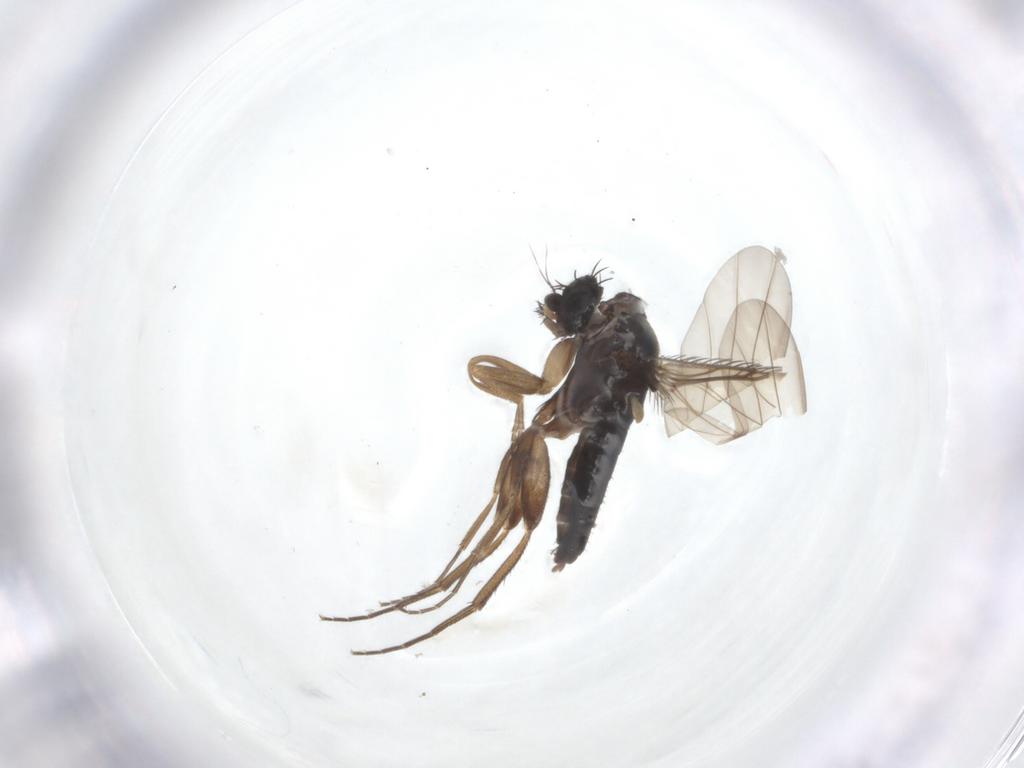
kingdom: Animalia
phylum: Arthropoda
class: Insecta
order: Diptera
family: Phoridae
